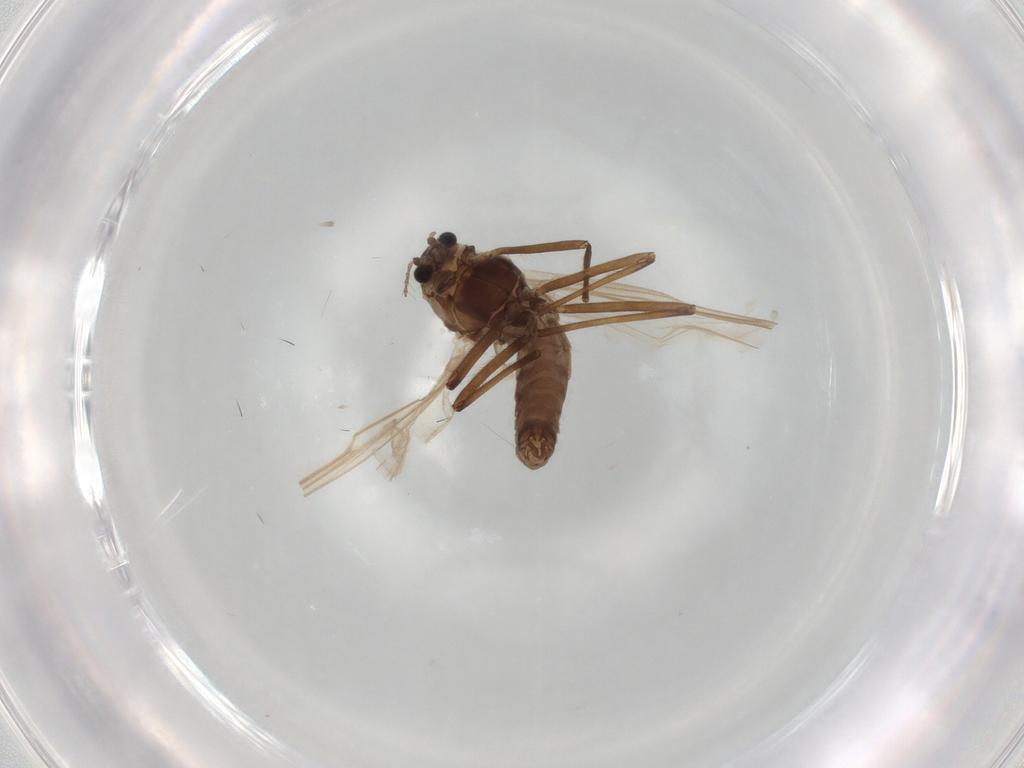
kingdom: Animalia
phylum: Arthropoda
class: Insecta
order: Diptera
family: Chironomidae
